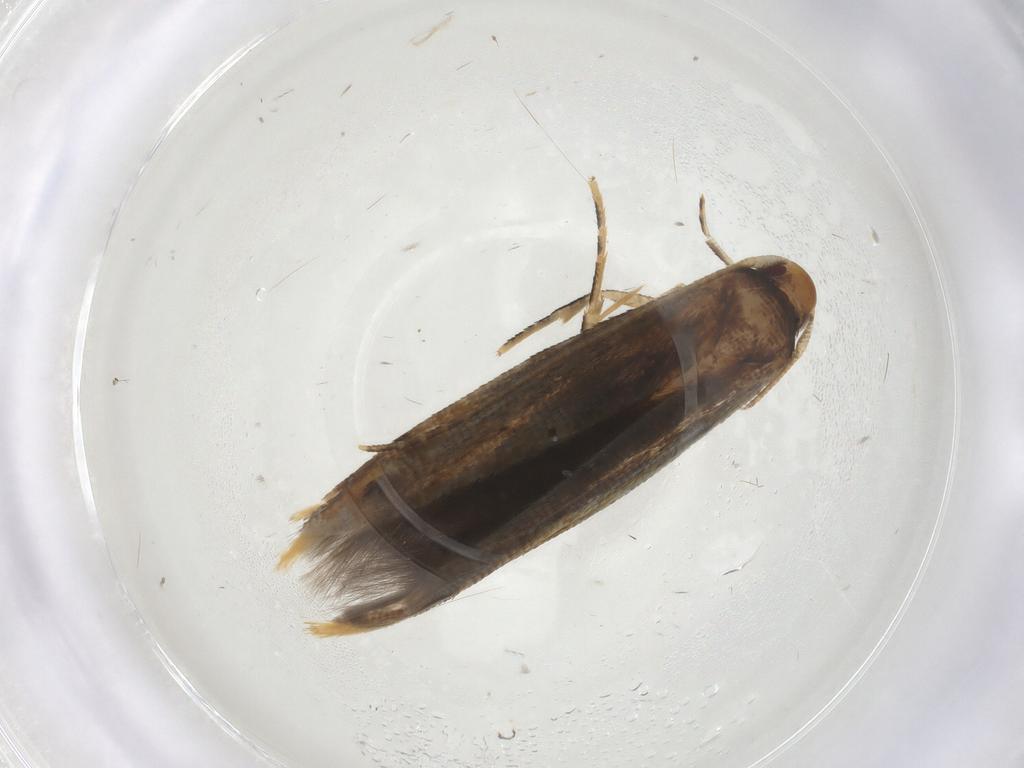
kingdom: Animalia
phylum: Arthropoda
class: Insecta
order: Lepidoptera
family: Momphidae
